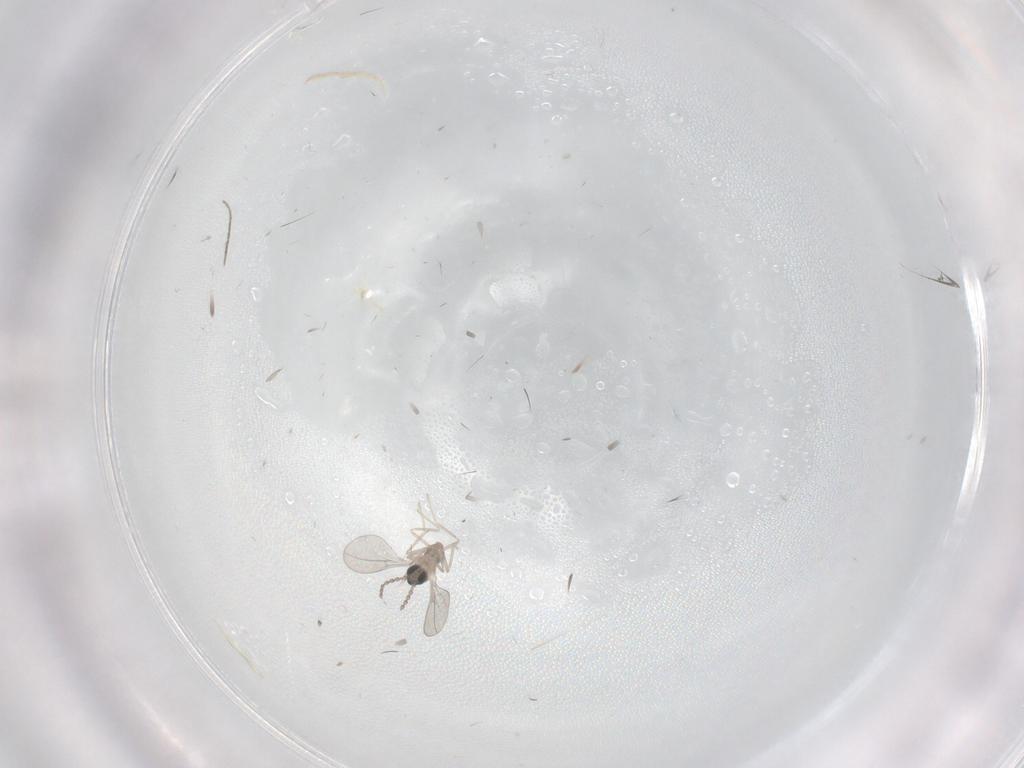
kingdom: Animalia
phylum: Arthropoda
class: Insecta
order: Diptera
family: Cecidomyiidae
